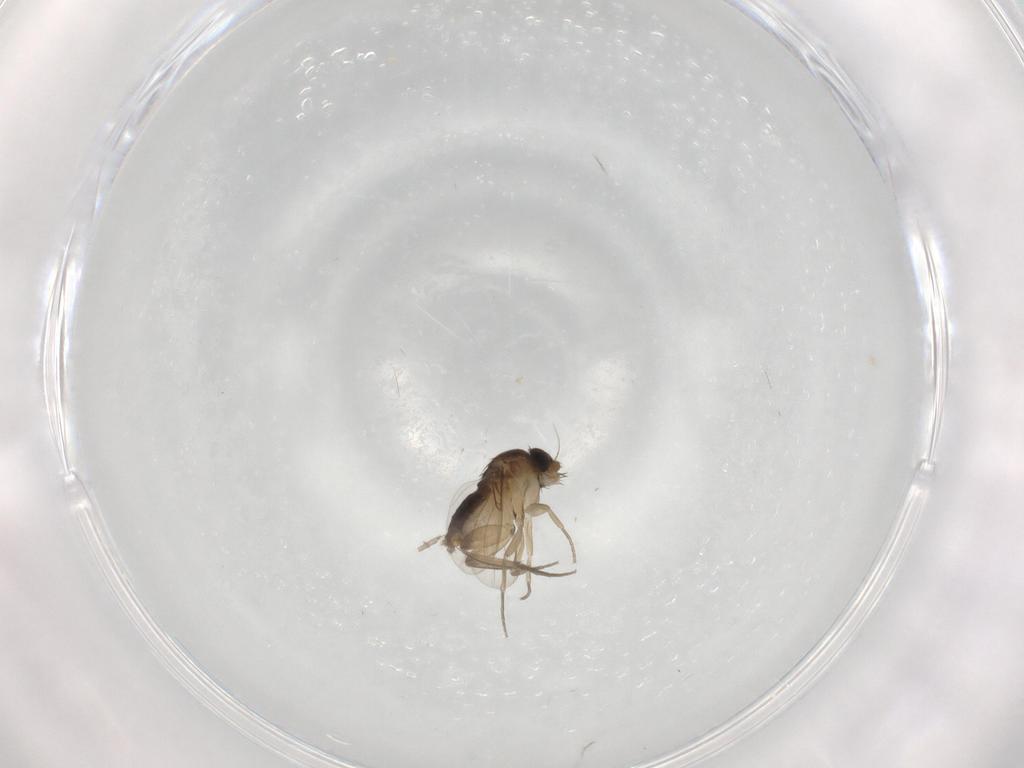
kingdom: Animalia
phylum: Arthropoda
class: Insecta
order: Diptera
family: Phoridae
